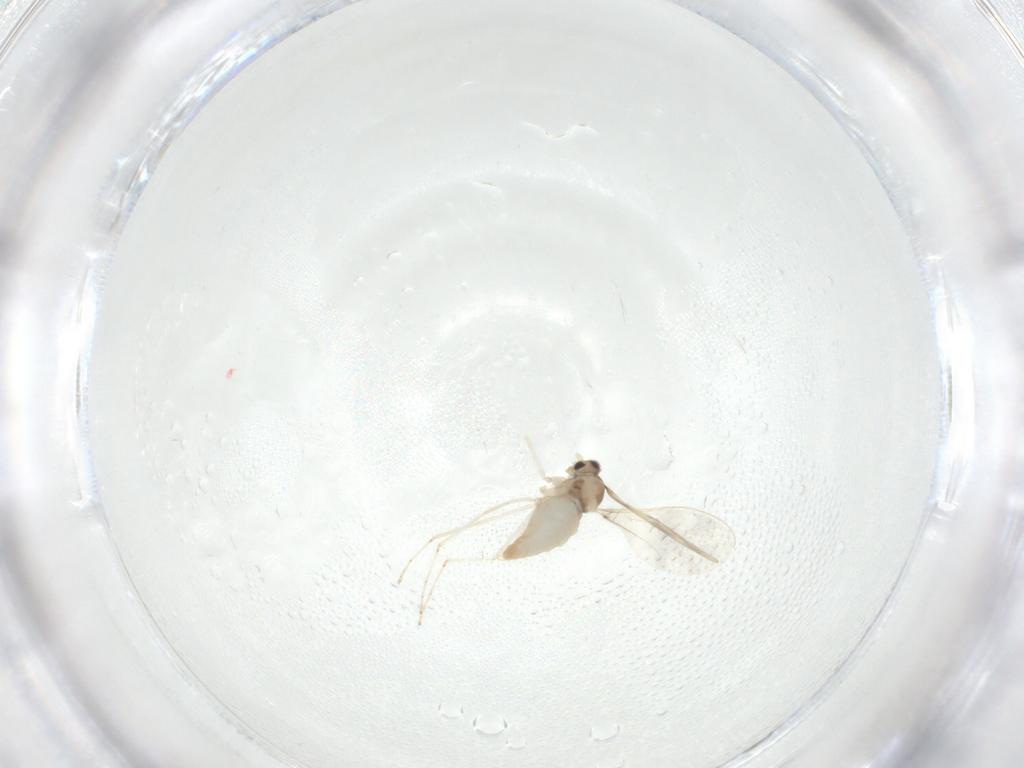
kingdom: Animalia
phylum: Arthropoda
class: Insecta
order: Diptera
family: Cecidomyiidae
